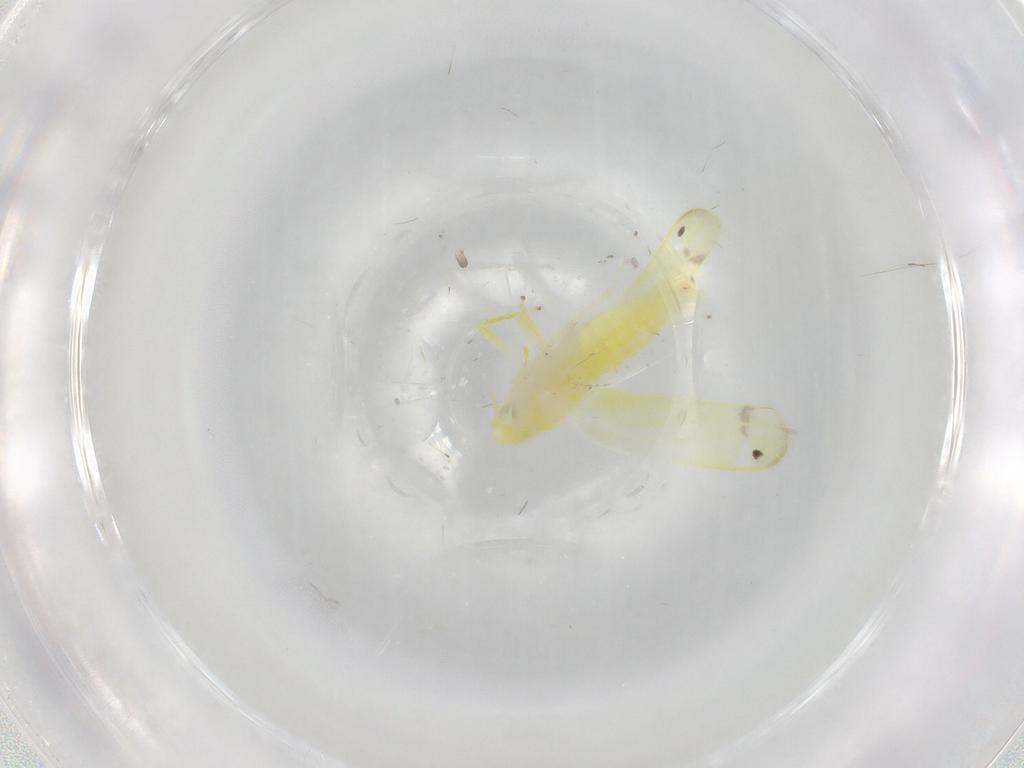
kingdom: Animalia
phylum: Arthropoda
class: Insecta
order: Hemiptera
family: Cicadellidae
